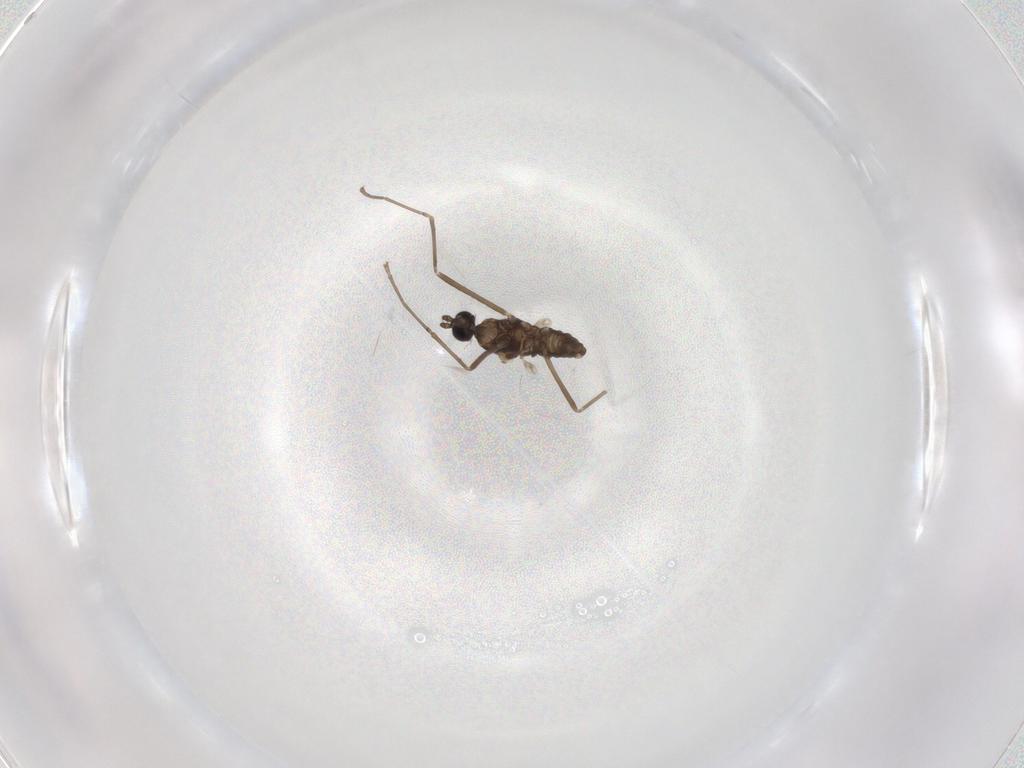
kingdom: Animalia
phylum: Arthropoda
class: Insecta
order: Diptera
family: Cecidomyiidae
